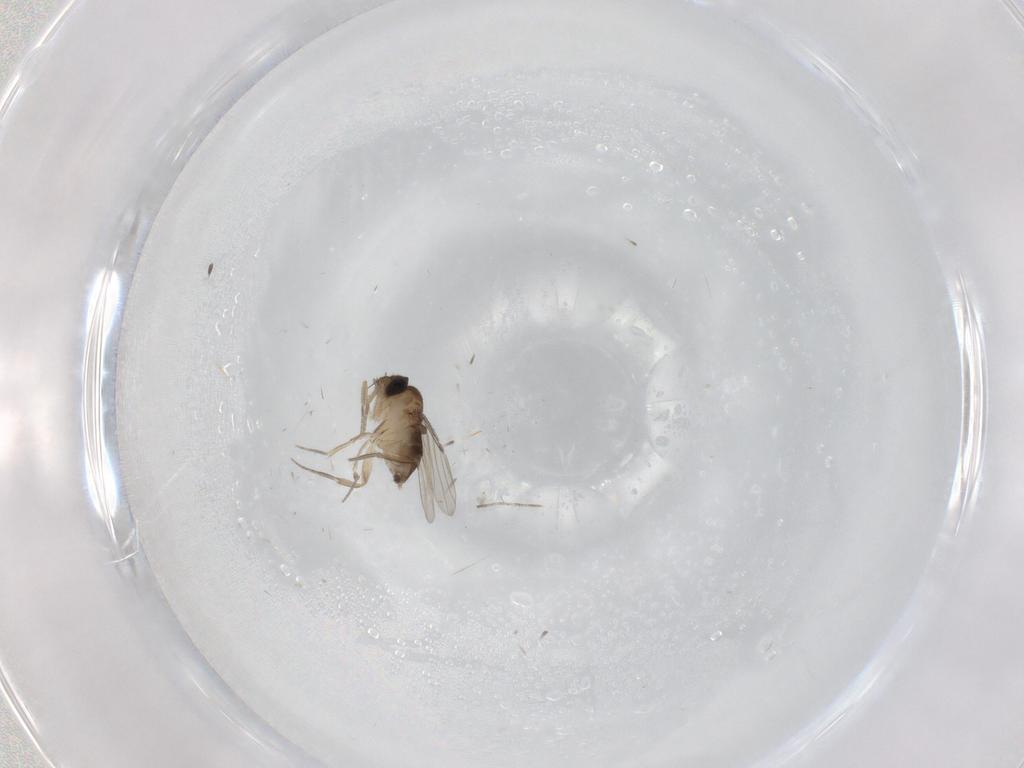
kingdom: Animalia
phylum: Arthropoda
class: Insecta
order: Diptera
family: Phoridae
